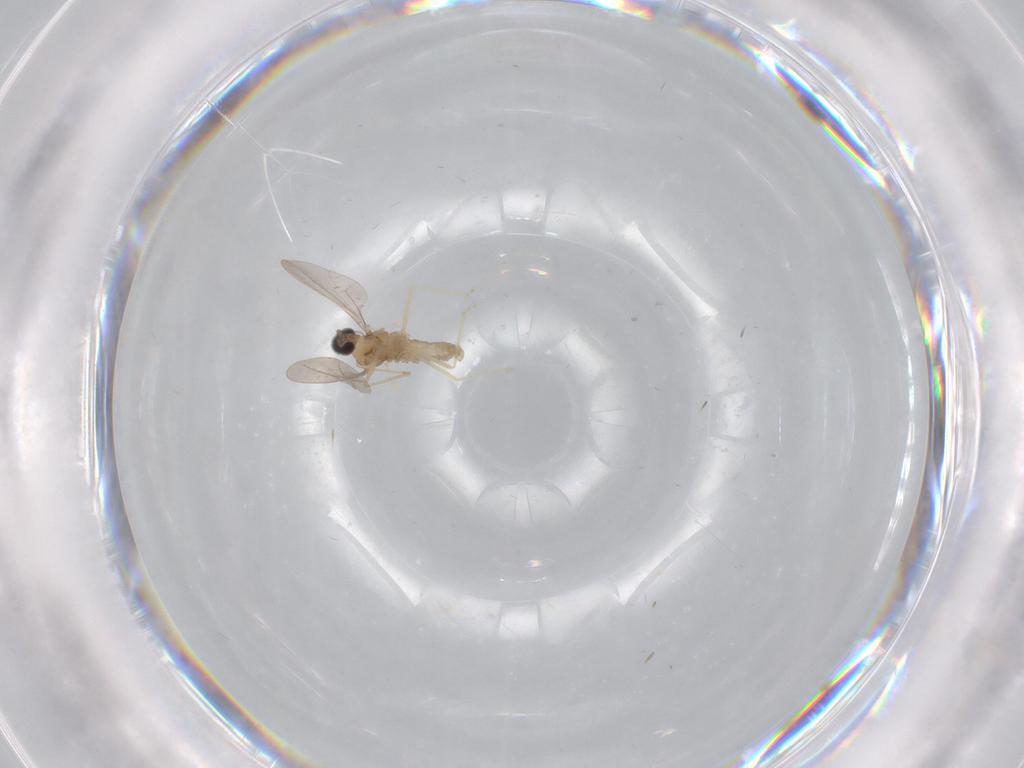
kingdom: Animalia
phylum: Arthropoda
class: Insecta
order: Diptera
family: Cecidomyiidae
